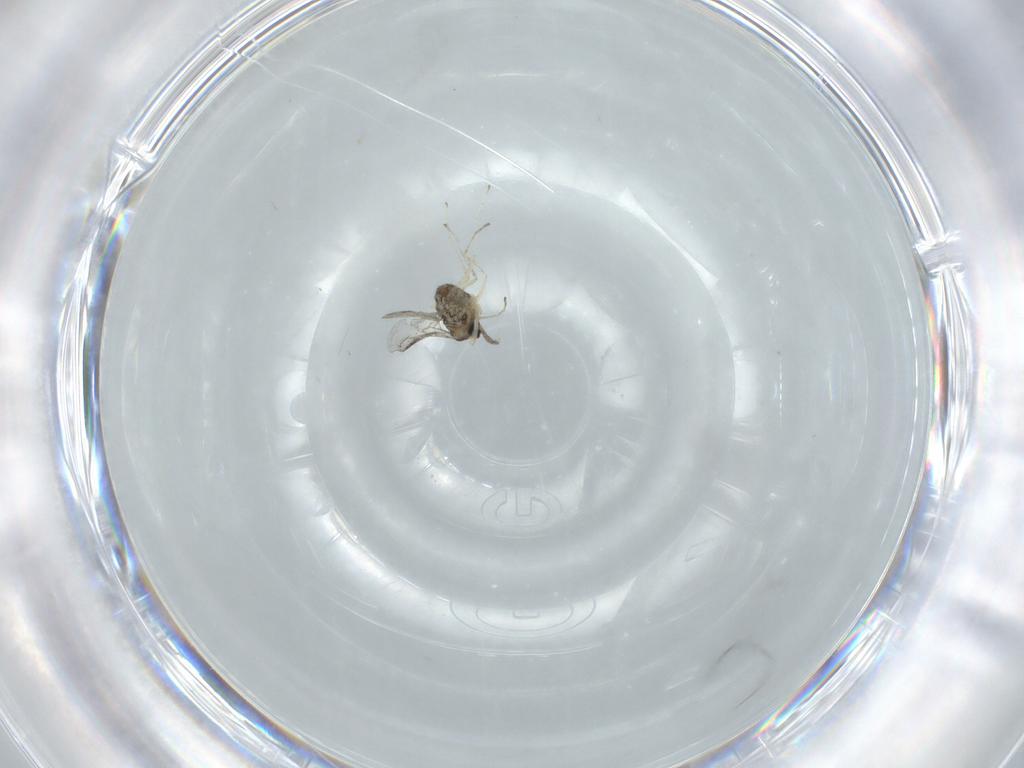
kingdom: Animalia
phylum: Arthropoda
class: Insecta
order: Diptera
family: Cecidomyiidae
